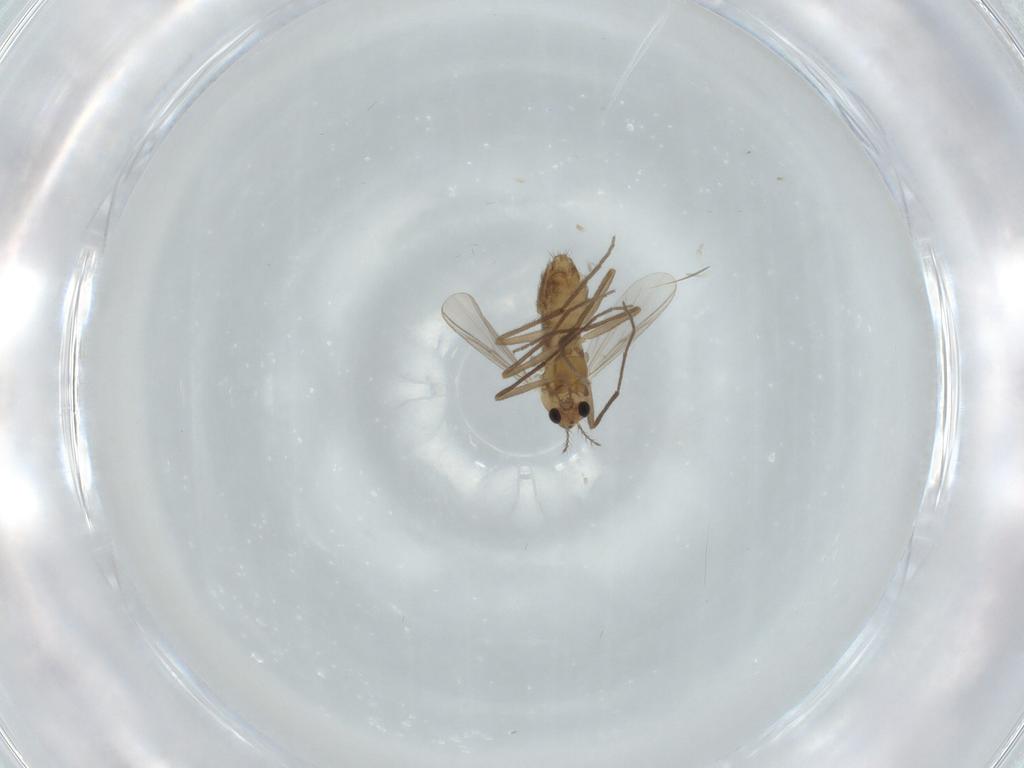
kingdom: Animalia
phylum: Arthropoda
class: Insecta
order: Diptera
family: Chironomidae
